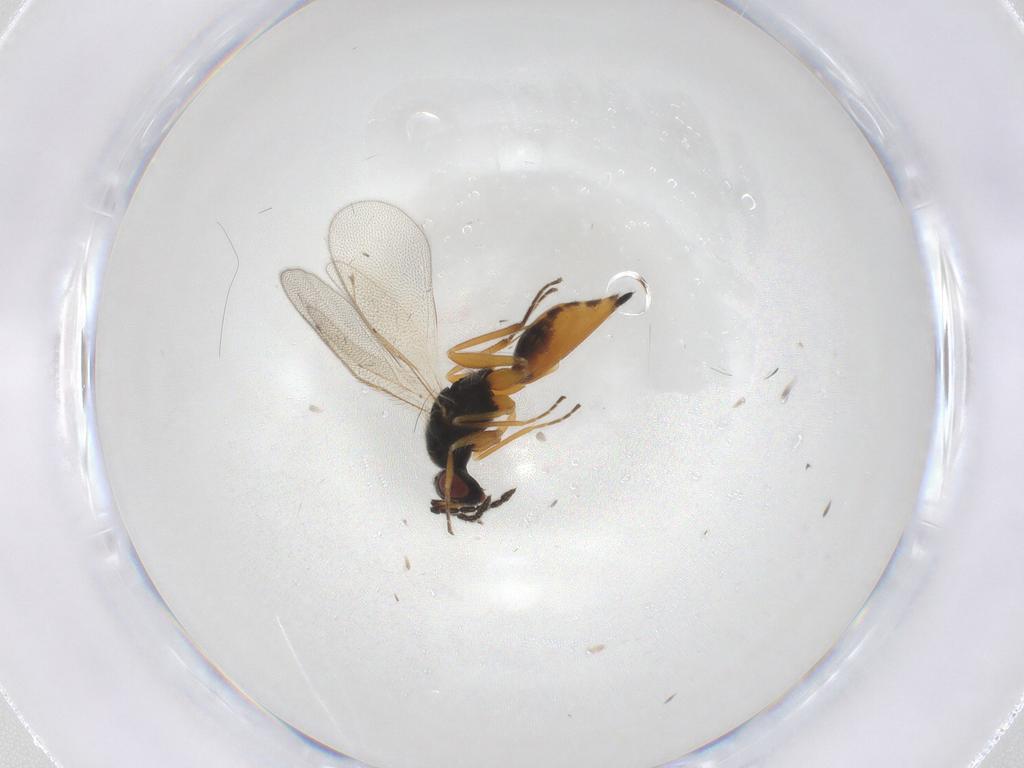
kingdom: Animalia
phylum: Arthropoda
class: Insecta
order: Hymenoptera
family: Eulophidae
